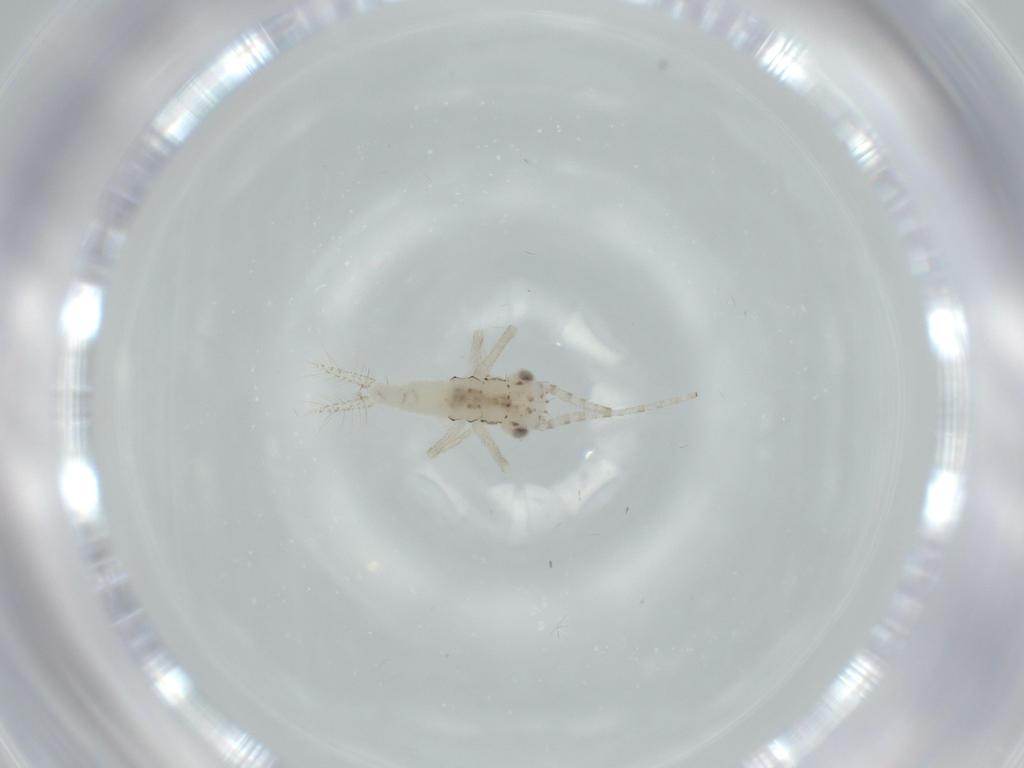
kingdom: Animalia
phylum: Arthropoda
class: Insecta
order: Orthoptera
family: Trigonidiidae
